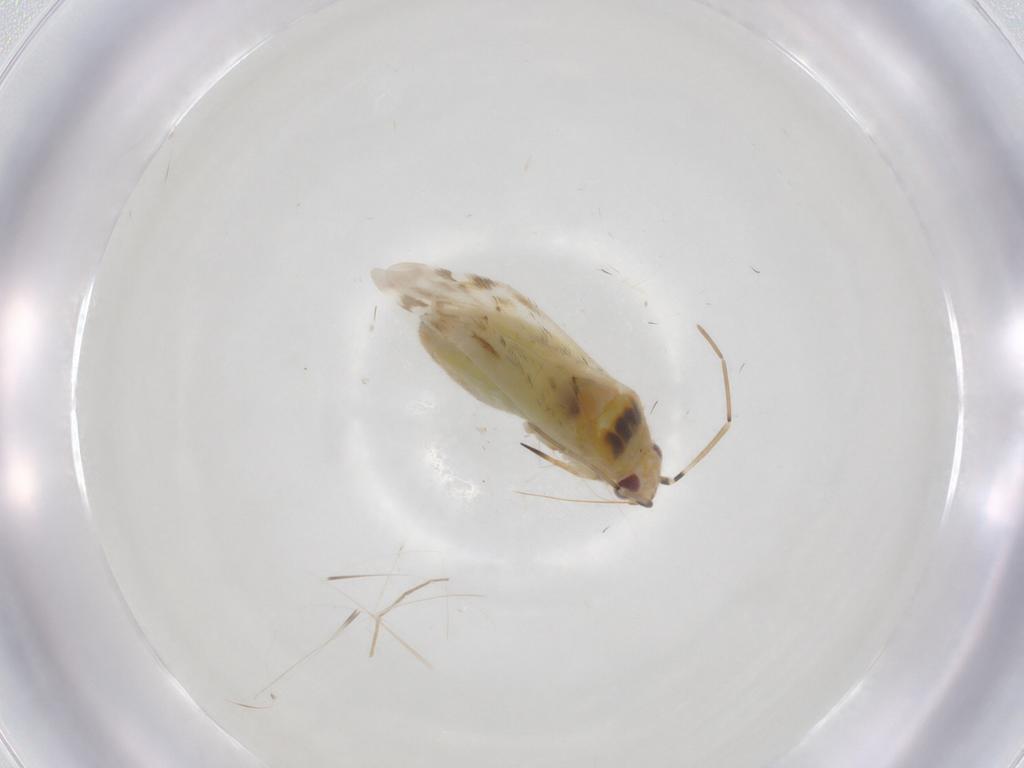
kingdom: Animalia
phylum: Arthropoda
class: Insecta
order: Hemiptera
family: Miridae
